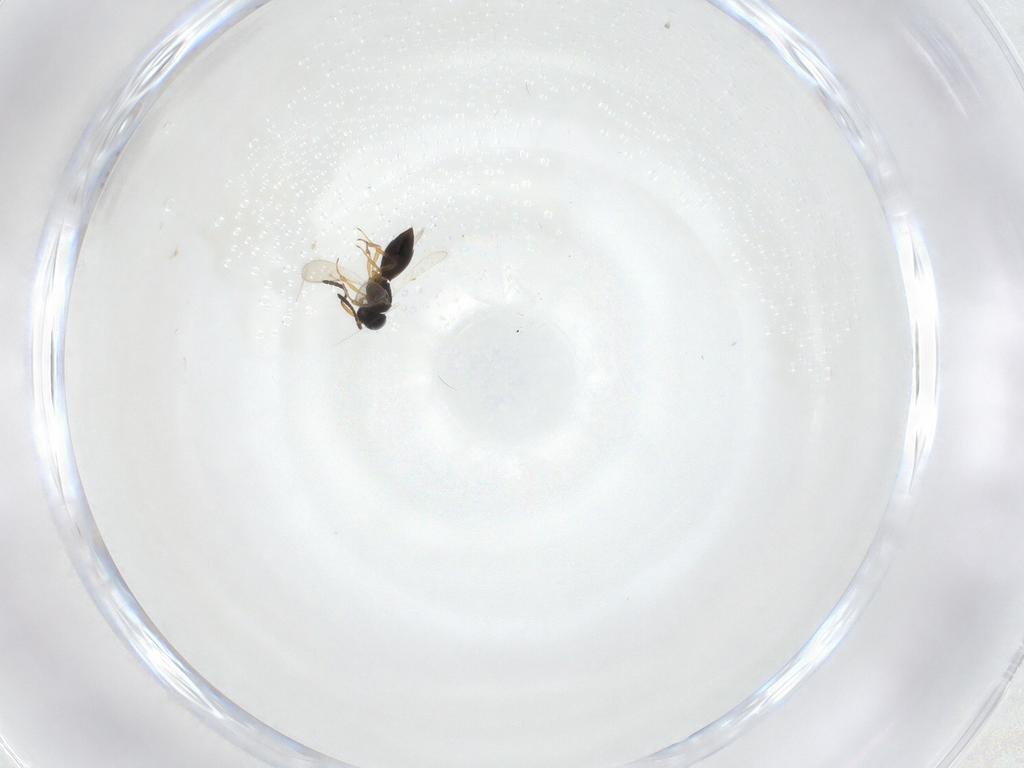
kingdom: Animalia
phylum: Arthropoda
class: Insecta
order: Hymenoptera
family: Scelionidae
